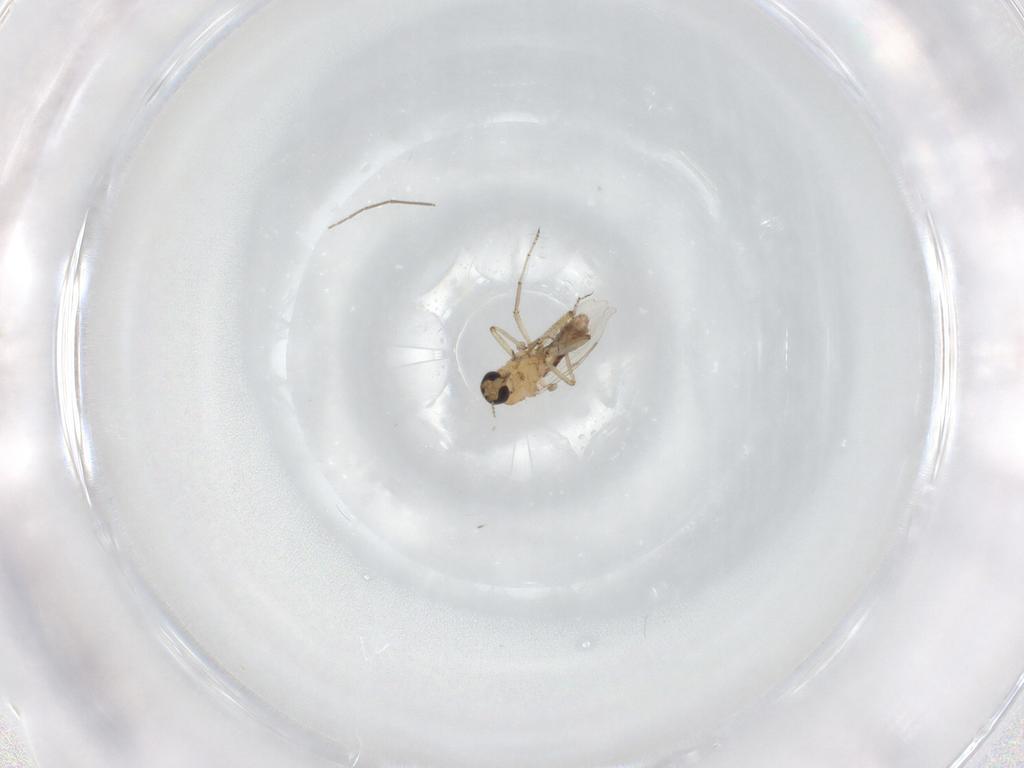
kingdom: Animalia
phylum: Arthropoda
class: Insecta
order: Diptera
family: Ceratopogonidae
